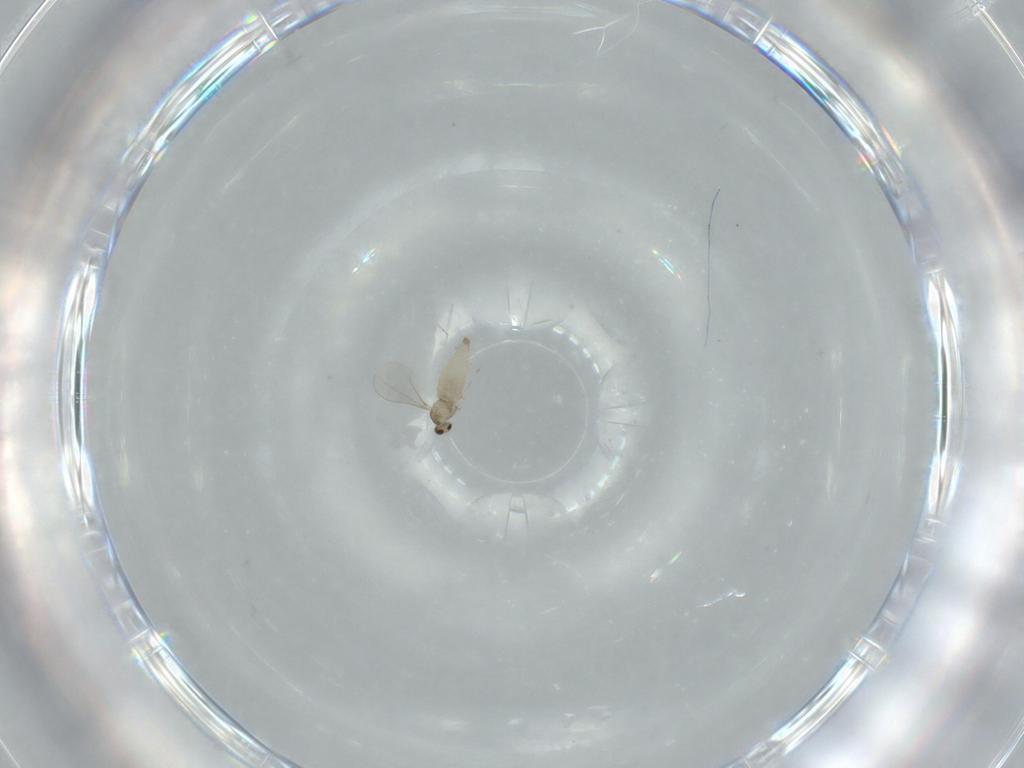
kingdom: Animalia
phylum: Arthropoda
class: Insecta
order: Diptera
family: Cecidomyiidae
